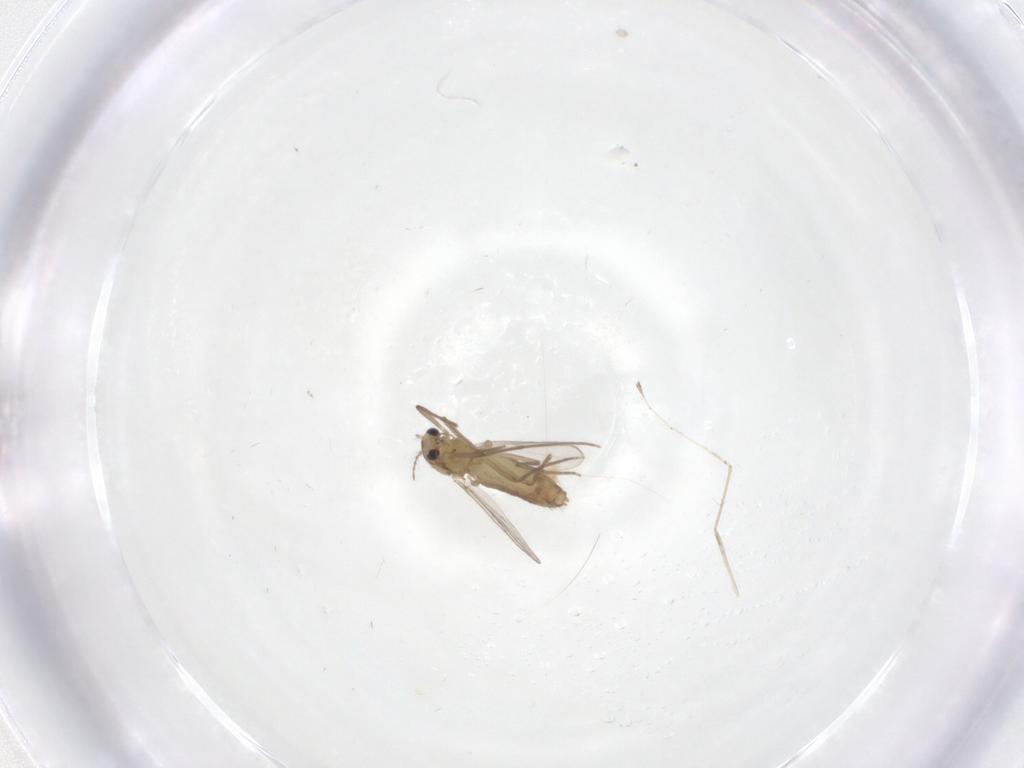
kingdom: Animalia
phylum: Arthropoda
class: Insecta
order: Diptera
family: Chironomidae
